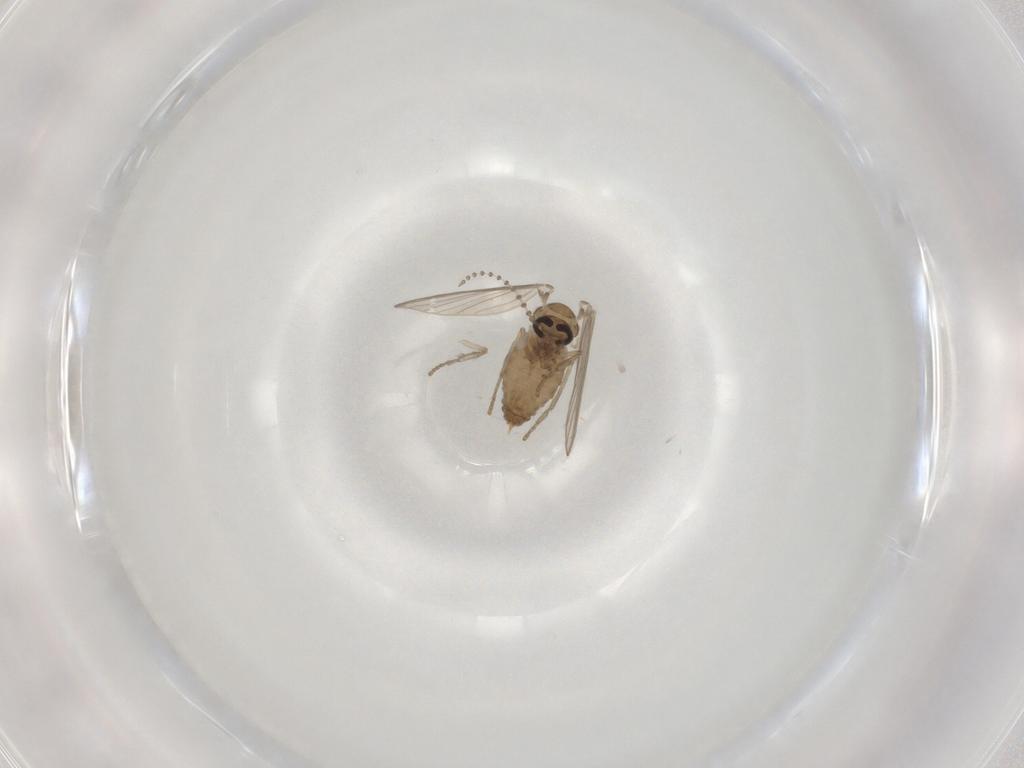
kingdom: Animalia
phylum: Arthropoda
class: Insecta
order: Diptera
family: Psychodidae
